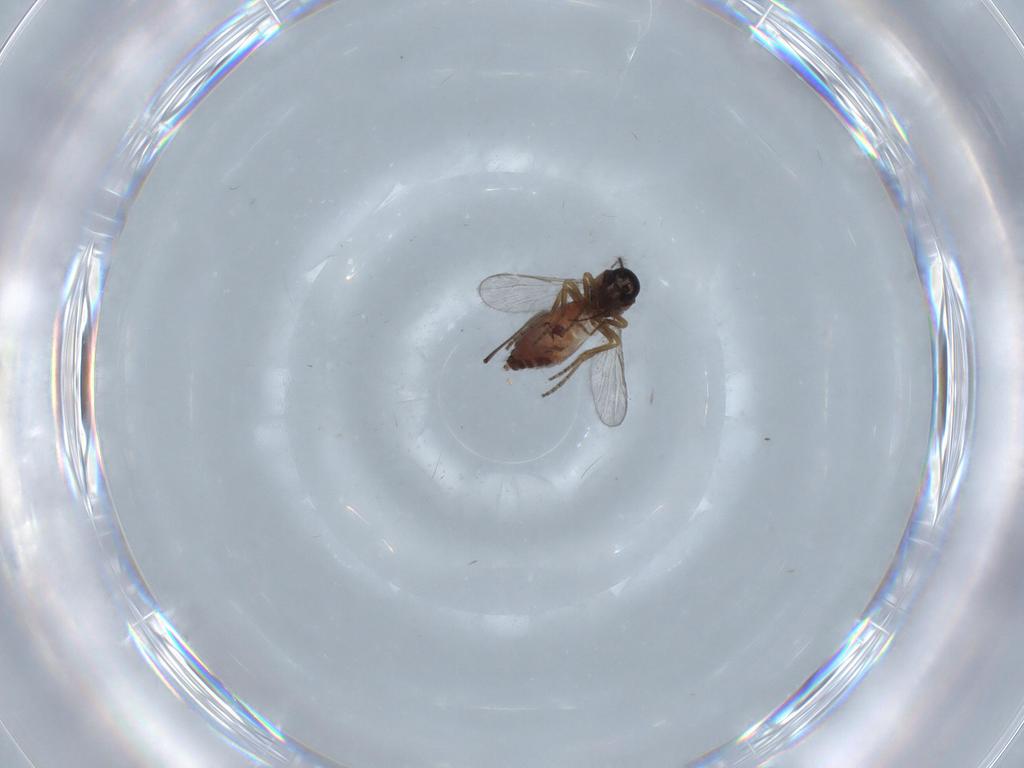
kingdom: Animalia
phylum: Arthropoda
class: Insecta
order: Diptera
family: Chironomidae
